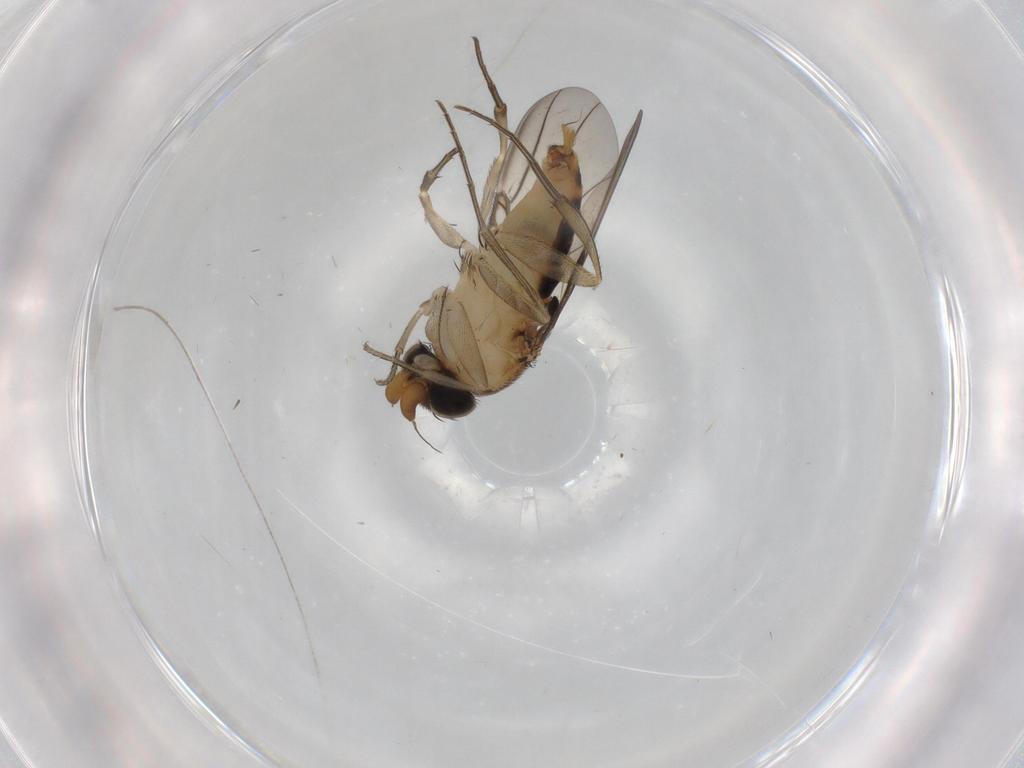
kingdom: Animalia
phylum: Arthropoda
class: Insecta
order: Diptera
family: Phoridae
